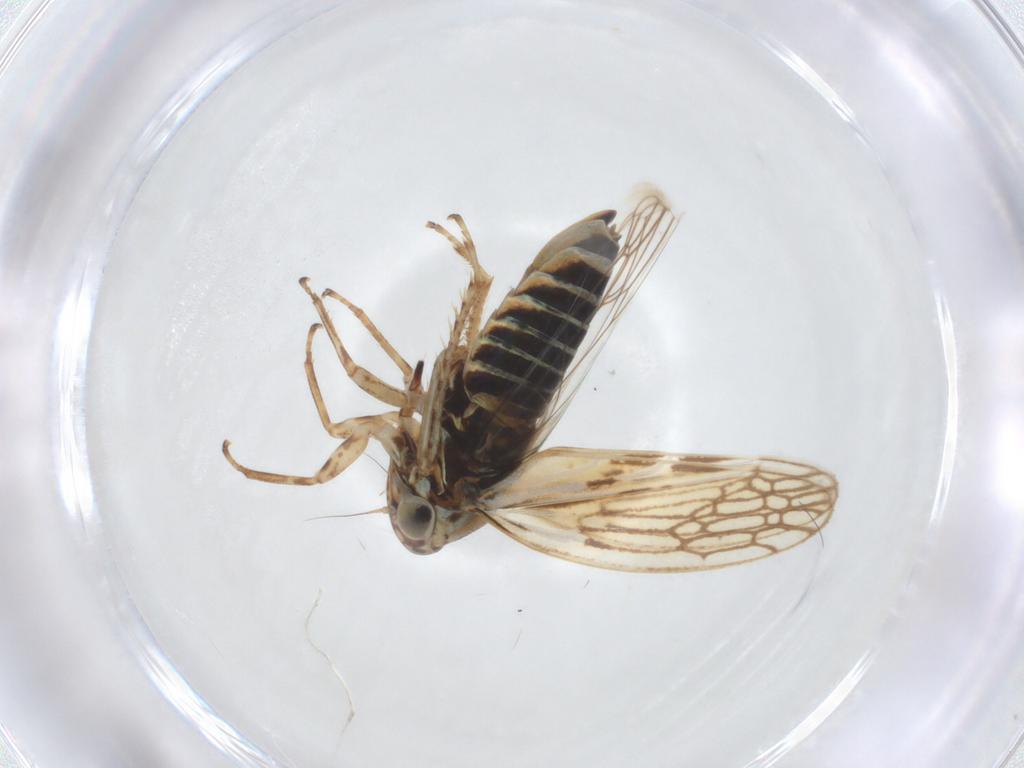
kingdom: Animalia
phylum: Arthropoda
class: Insecta
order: Hemiptera
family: Cicadellidae
